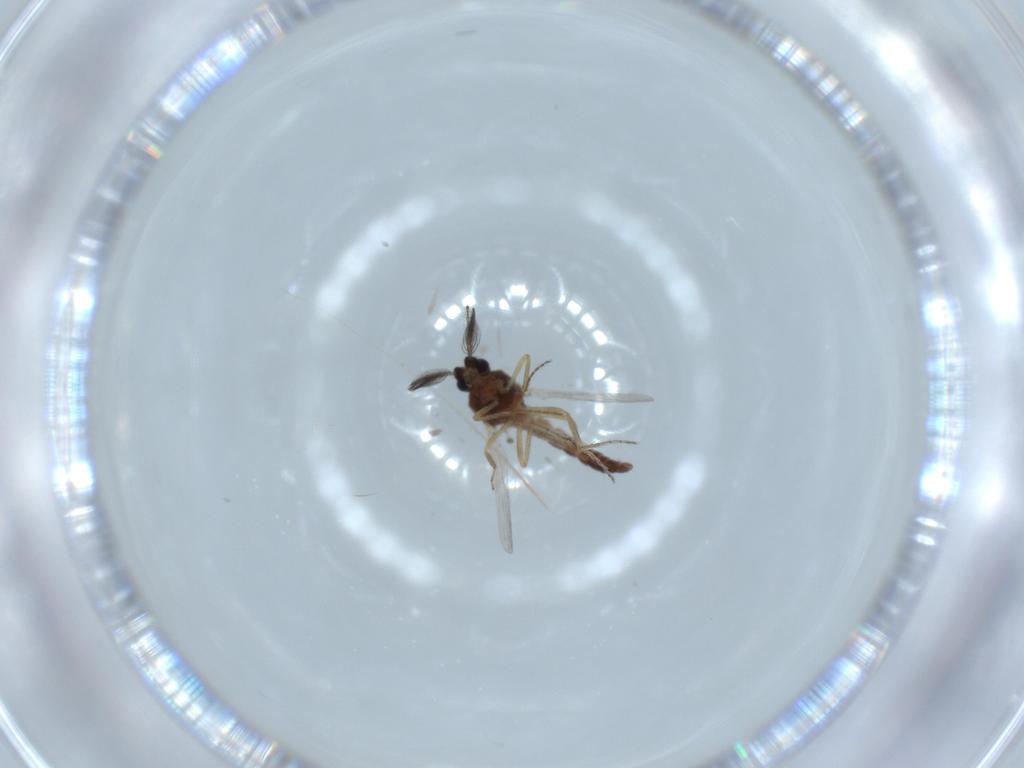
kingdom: Animalia
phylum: Arthropoda
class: Insecta
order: Diptera
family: Ceratopogonidae
